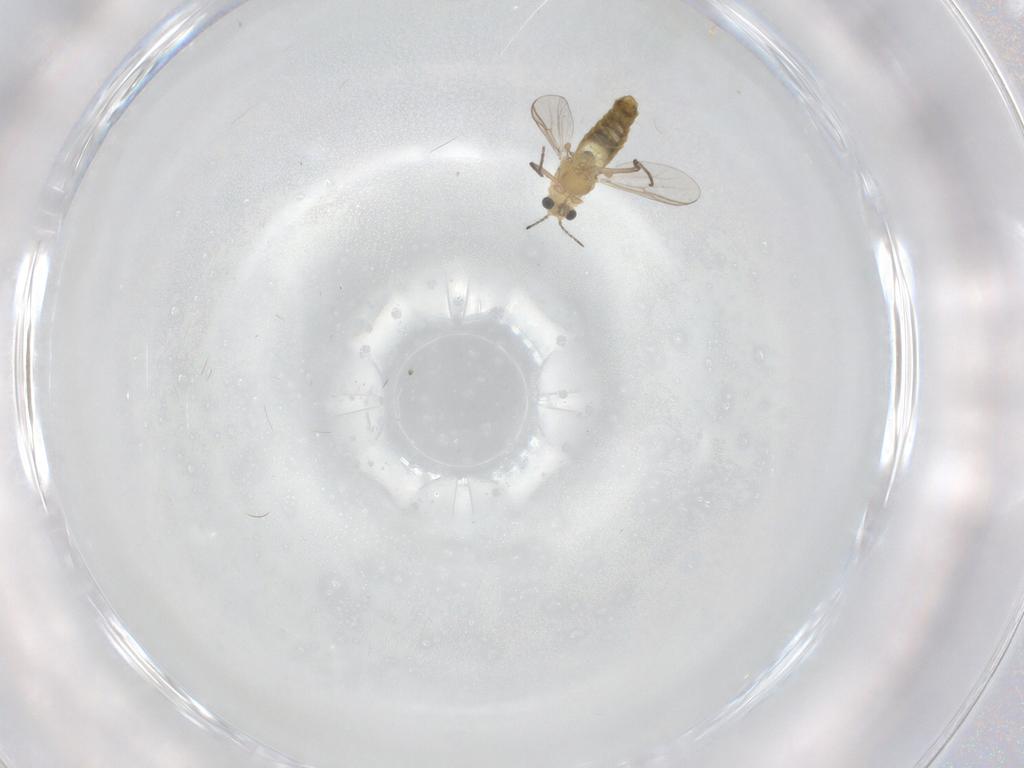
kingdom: Animalia
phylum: Arthropoda
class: Insecta
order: Diptera
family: Chironomidae
